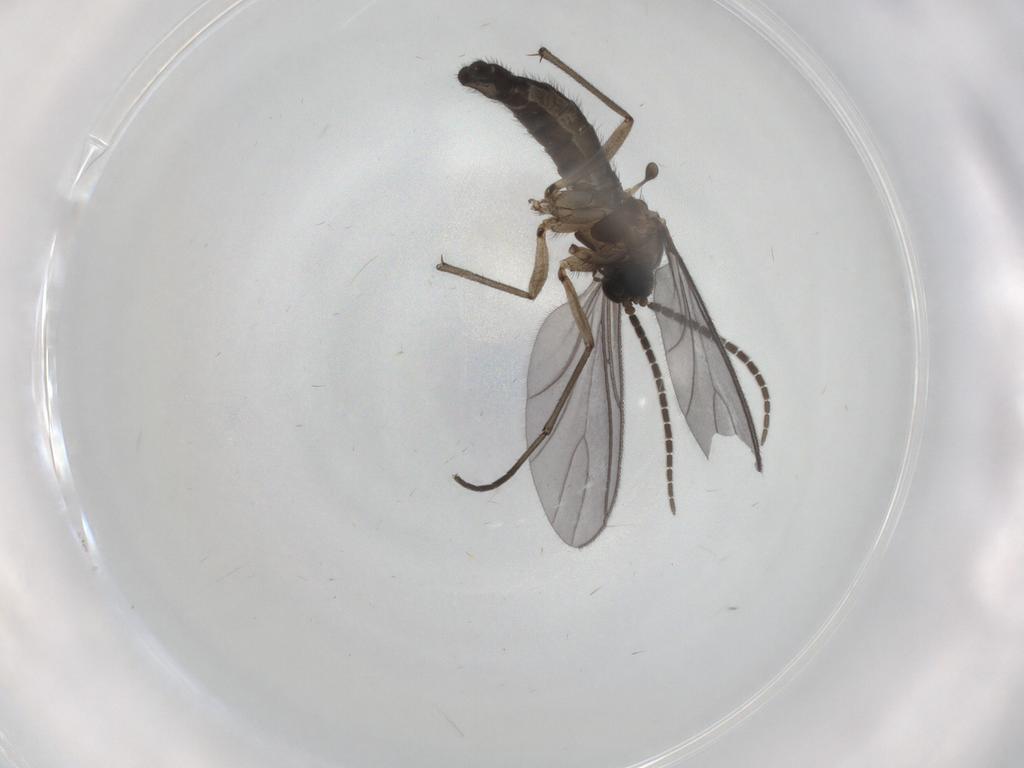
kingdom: Animalia
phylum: Arthropoda
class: Insecta
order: Diptera
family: Sciaridae
